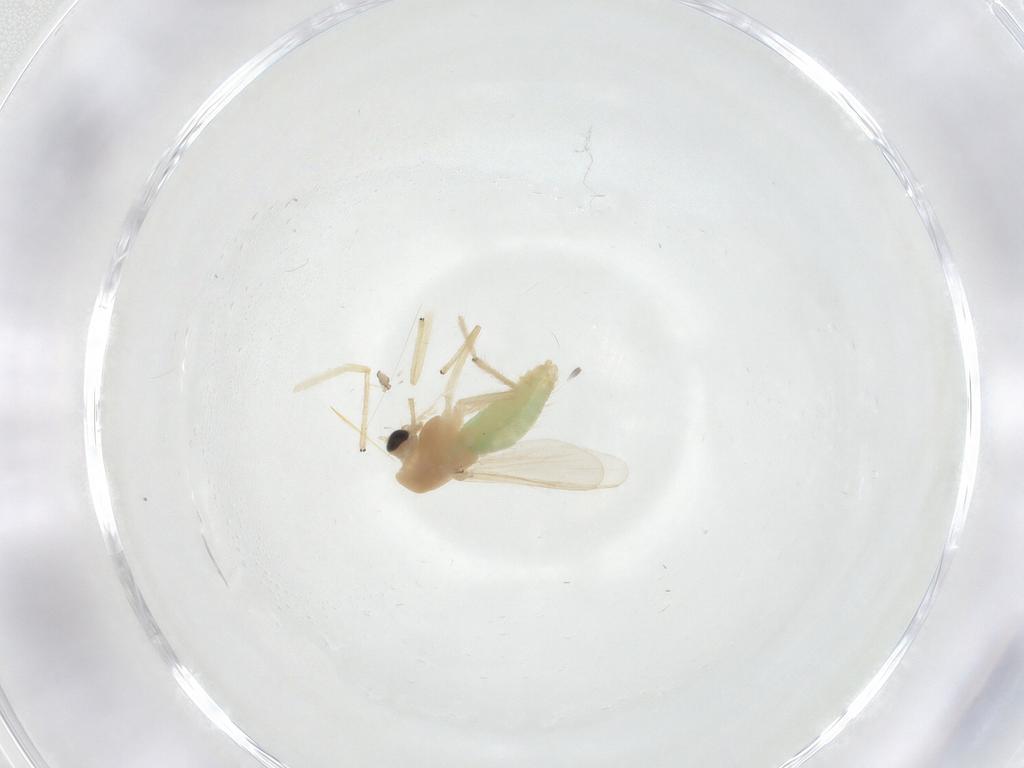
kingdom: Animalia
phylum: Arthropoda
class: Insecta
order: Diptera
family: Chironomidae
